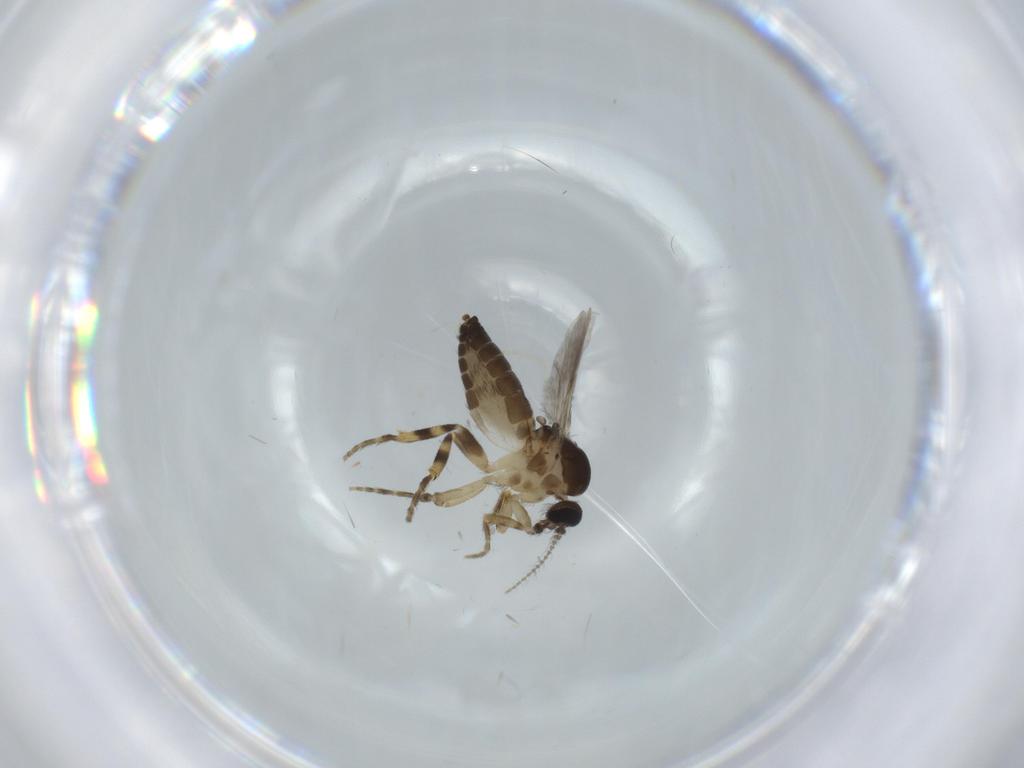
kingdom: Animalia
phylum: Arthropoda
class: Insecta
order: Diptera
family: Ceratopogonidae
